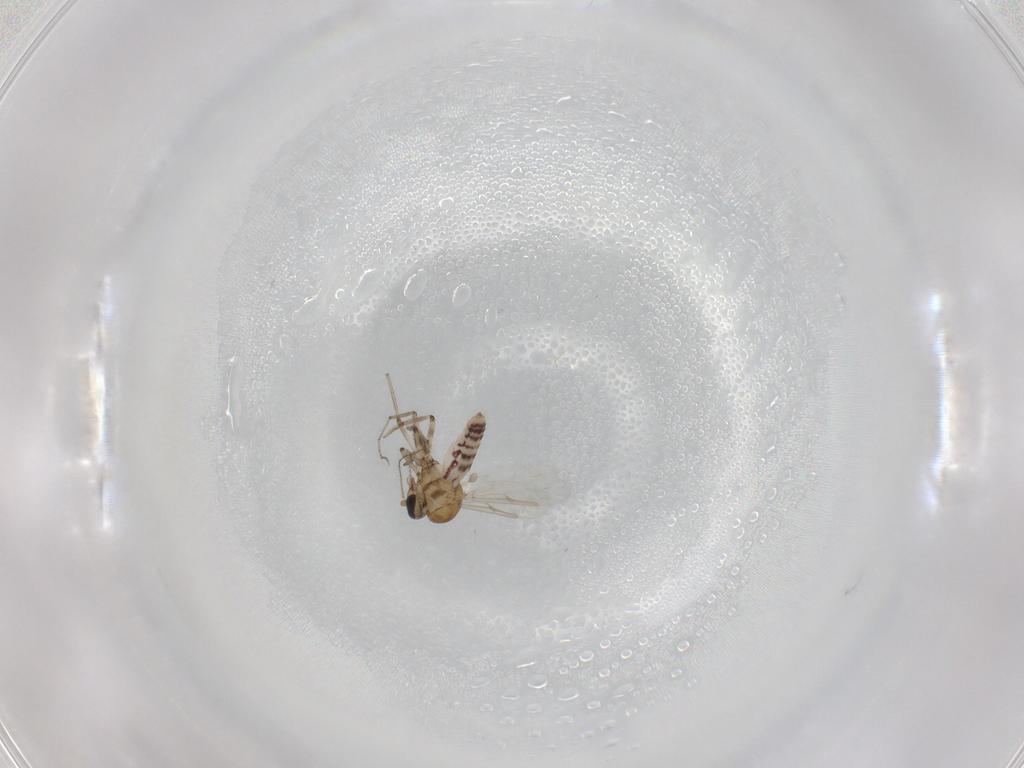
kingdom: Animalia
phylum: Arthropoda
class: Insecta
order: Diptera
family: Ceratopogonidae
